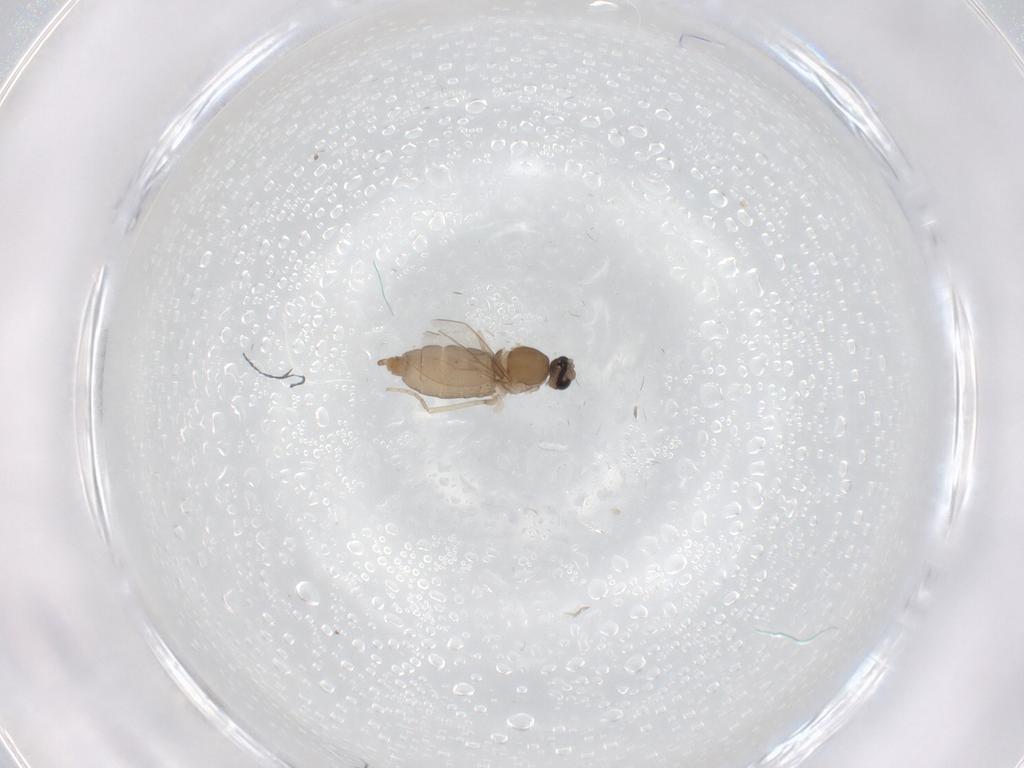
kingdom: Animalia
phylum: Arthropoda
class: Insecta
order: Diptera
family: Cecidomyiidae
